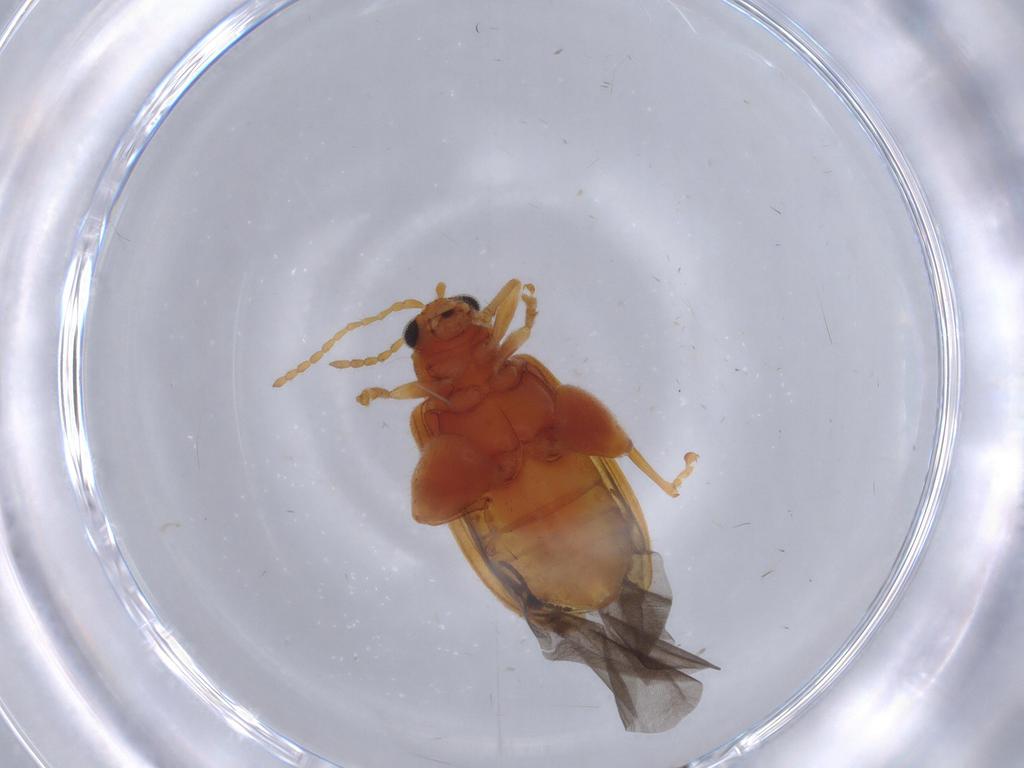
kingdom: Animalia
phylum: Arthropoda
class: Insecta
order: Coleoptera
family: Chrysomelidae
